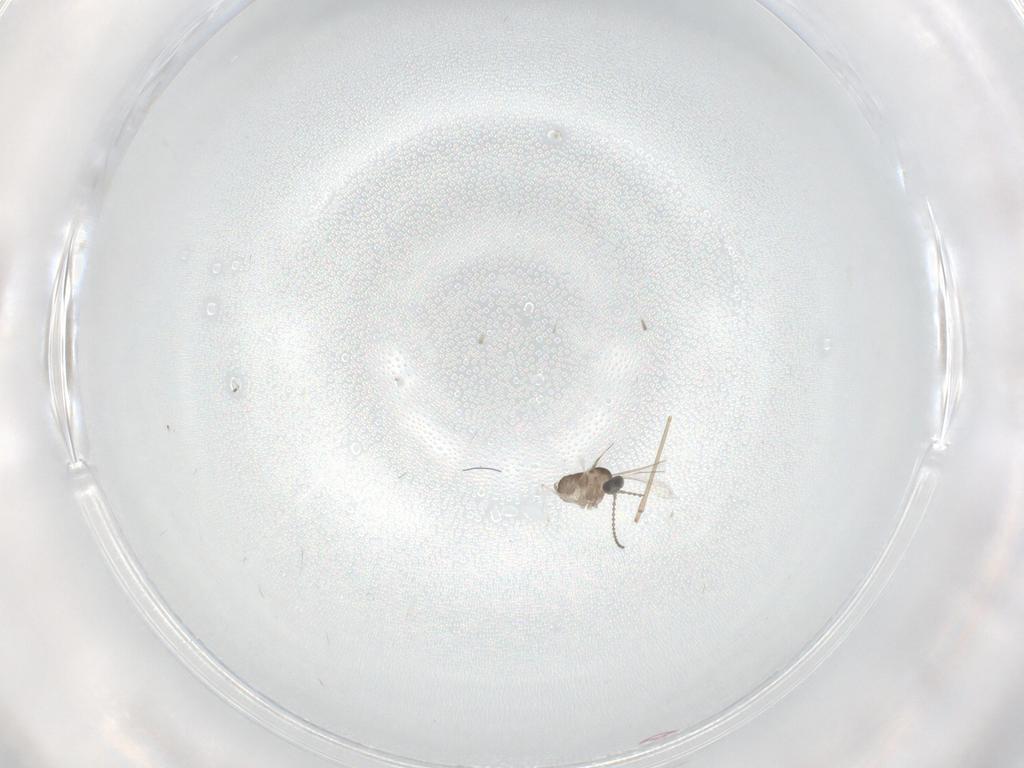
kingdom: Animalia
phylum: Arthropoda
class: Insecta
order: Diptera
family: Cecidomyiidae
